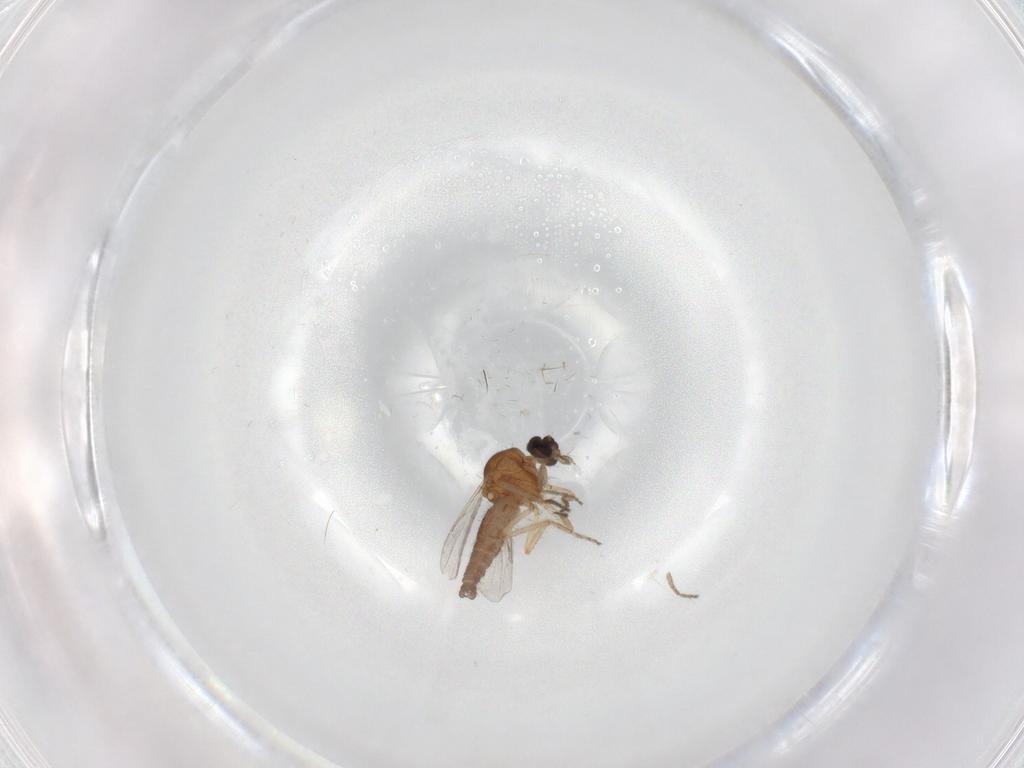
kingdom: Animalia
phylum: Arthropoda
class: Insecta
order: Diptera
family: Ceratopogonidae
